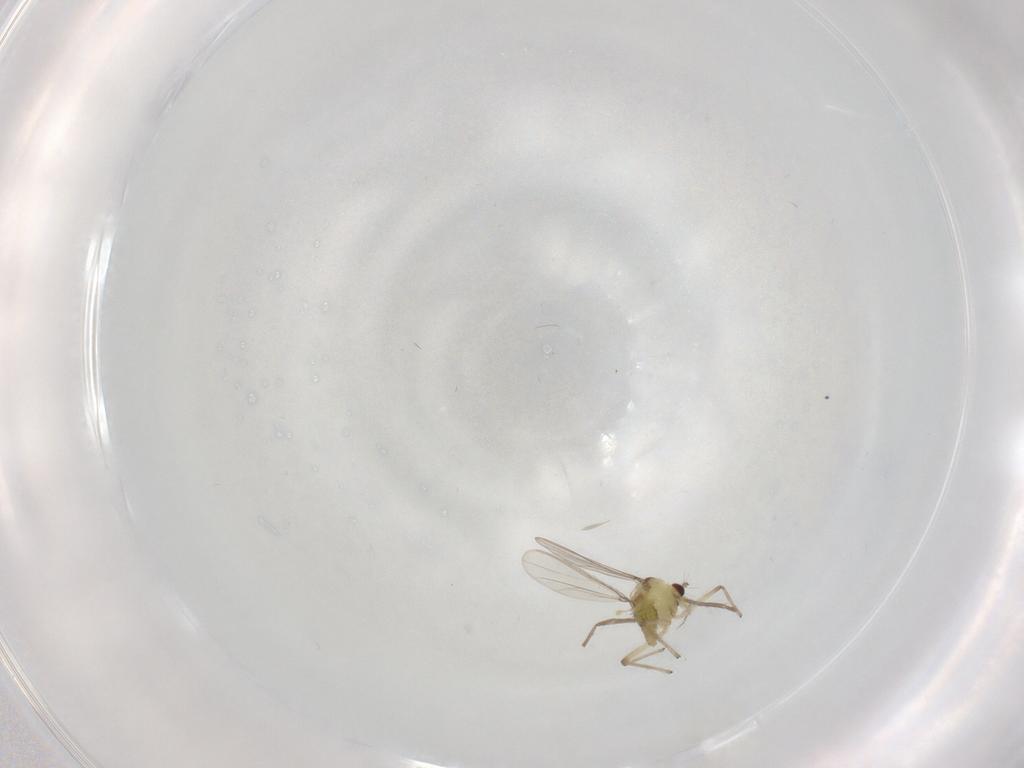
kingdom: Animalia
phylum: Arthropoda
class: Insecta
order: Diptera
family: Chironomidae
